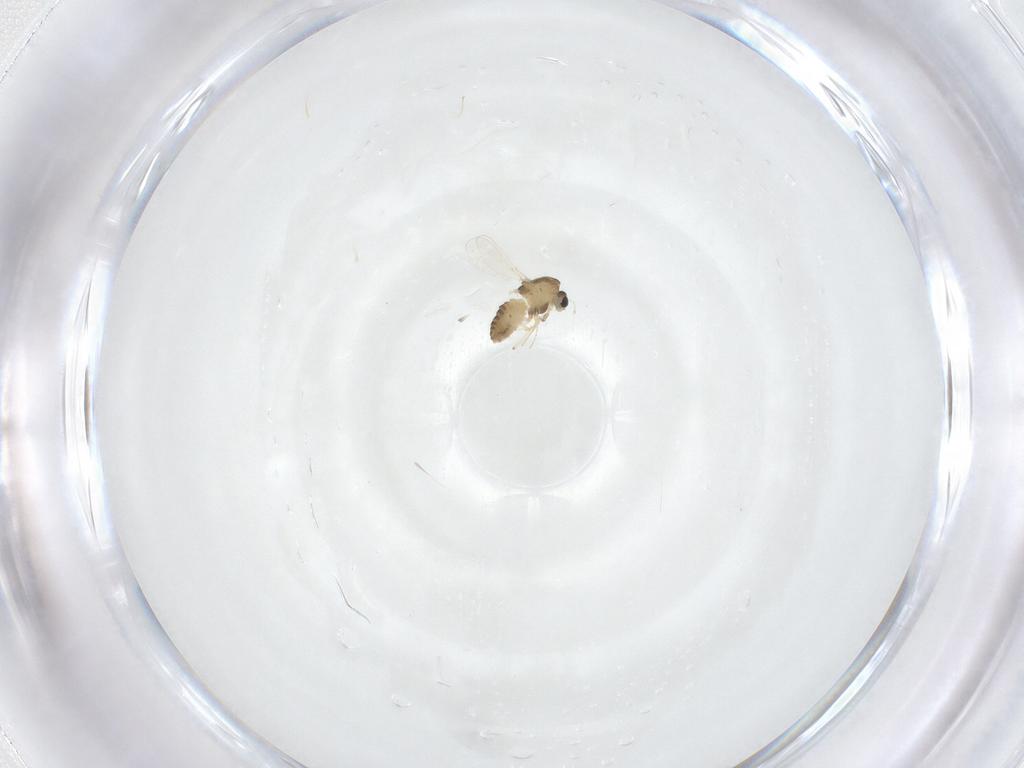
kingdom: Animalia
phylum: Arthropoda
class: Insecta
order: Diptera
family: Chironomidae
